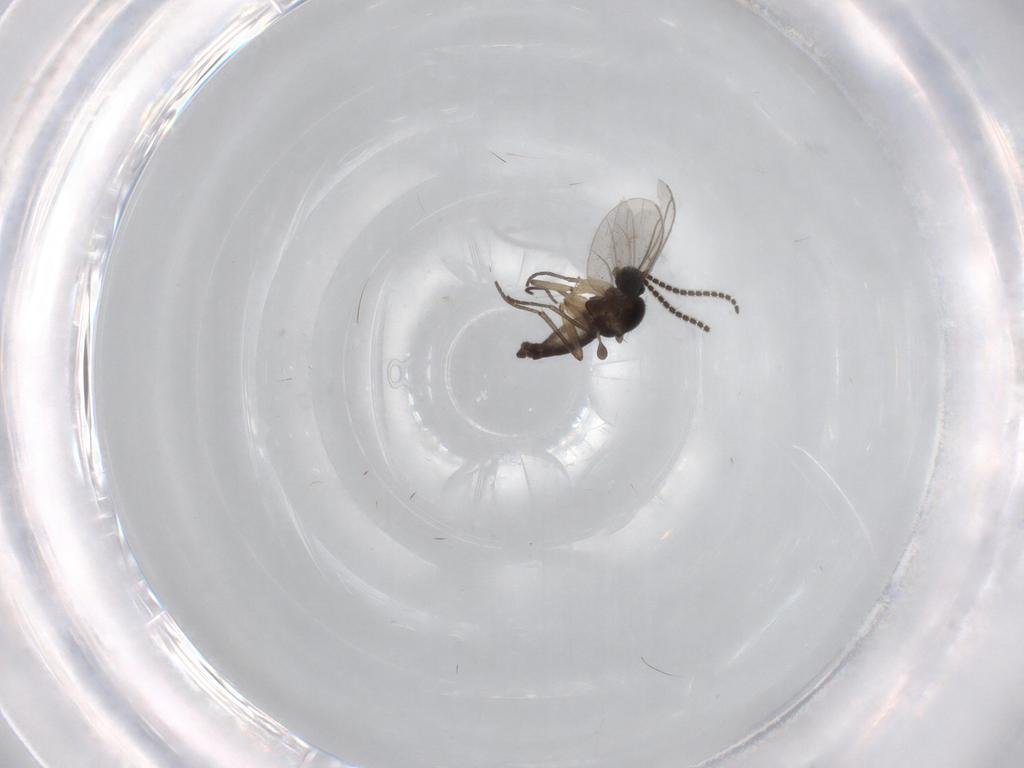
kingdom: Animalia
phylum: Arthropoda
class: Insecta
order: Diptera
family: Sciaridae
